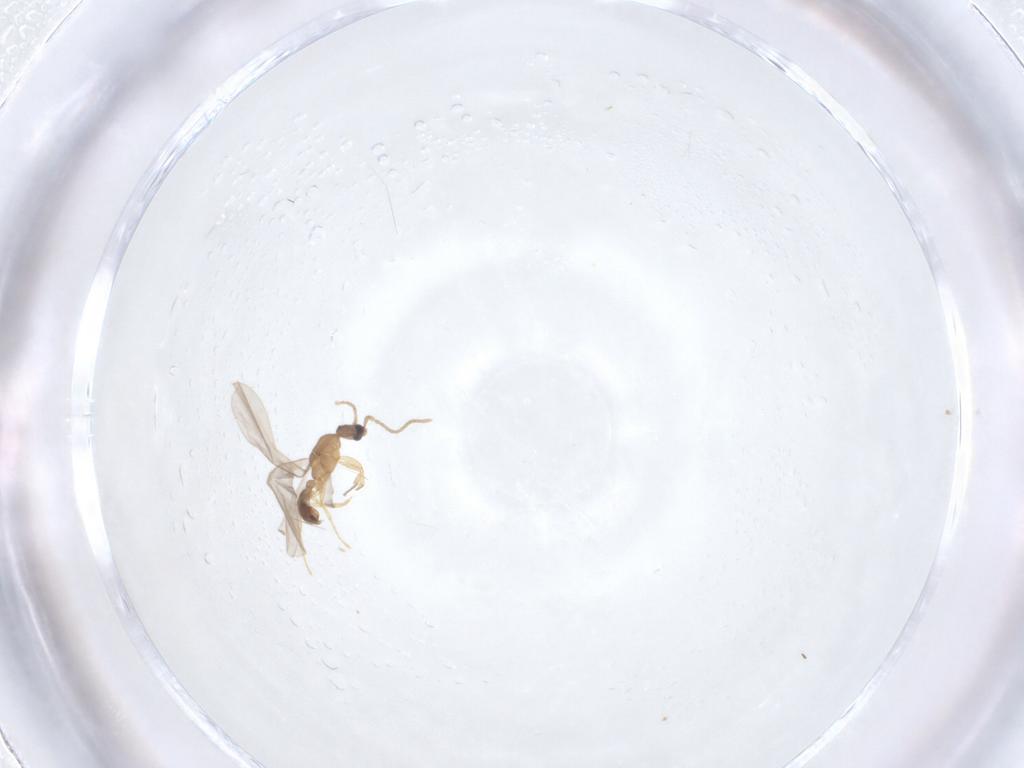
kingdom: Animalia
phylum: Arthropoda
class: Insecta
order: Hymenoptera
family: Formicidae
